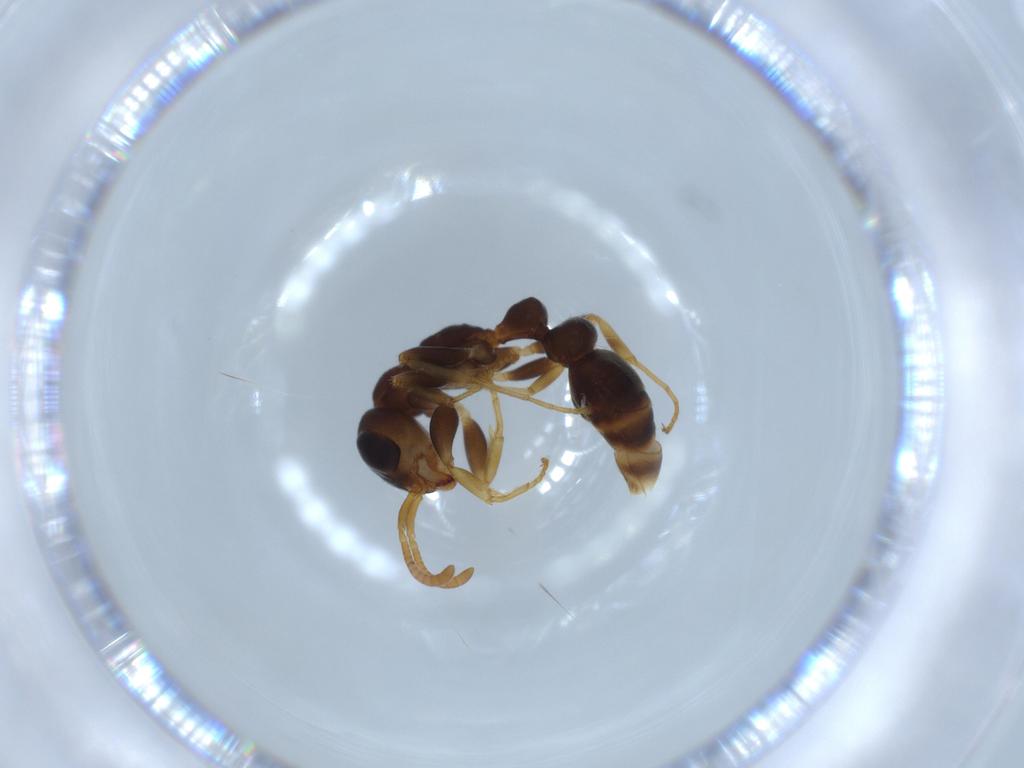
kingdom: Animalia
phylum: Arthropoda
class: Insecta
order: Hymenoptera
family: Formicidae
